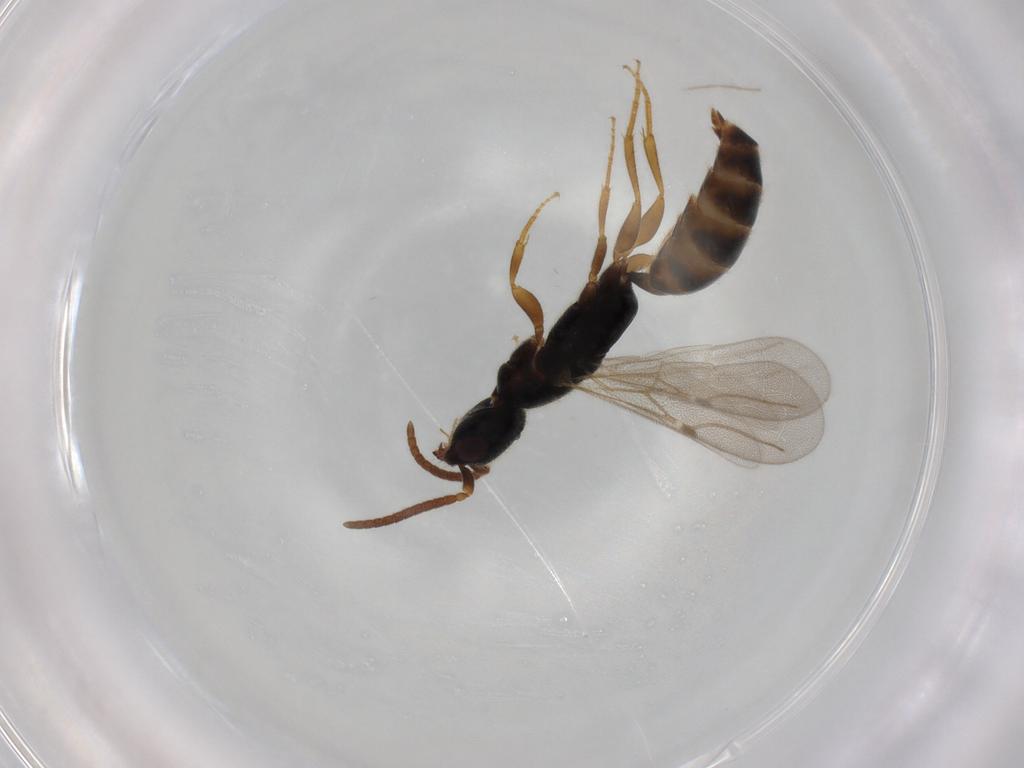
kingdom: Animalia
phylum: Arthropoda
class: Insecta
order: Hymenoptera
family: Bethylidae
